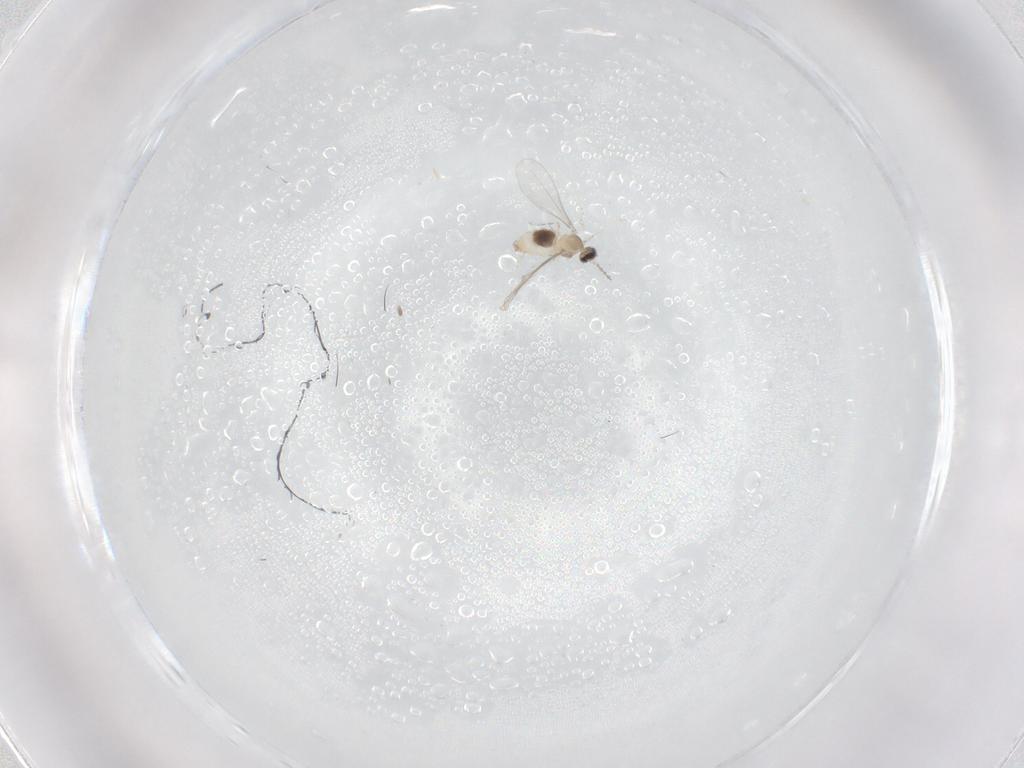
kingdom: Animalia
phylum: Arthropoda
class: Insecta
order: Diptera
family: Cecidomyiidae
